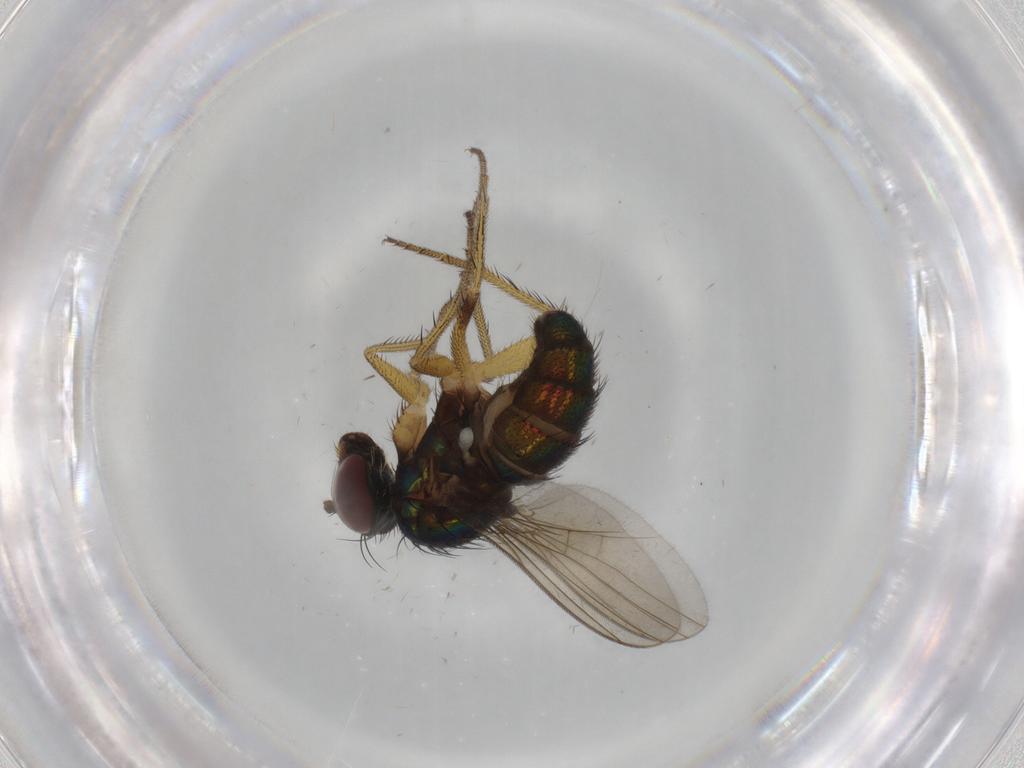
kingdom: Animalia
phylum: Arthropoda
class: Insecta
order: Diptera
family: Dolichopodidae
